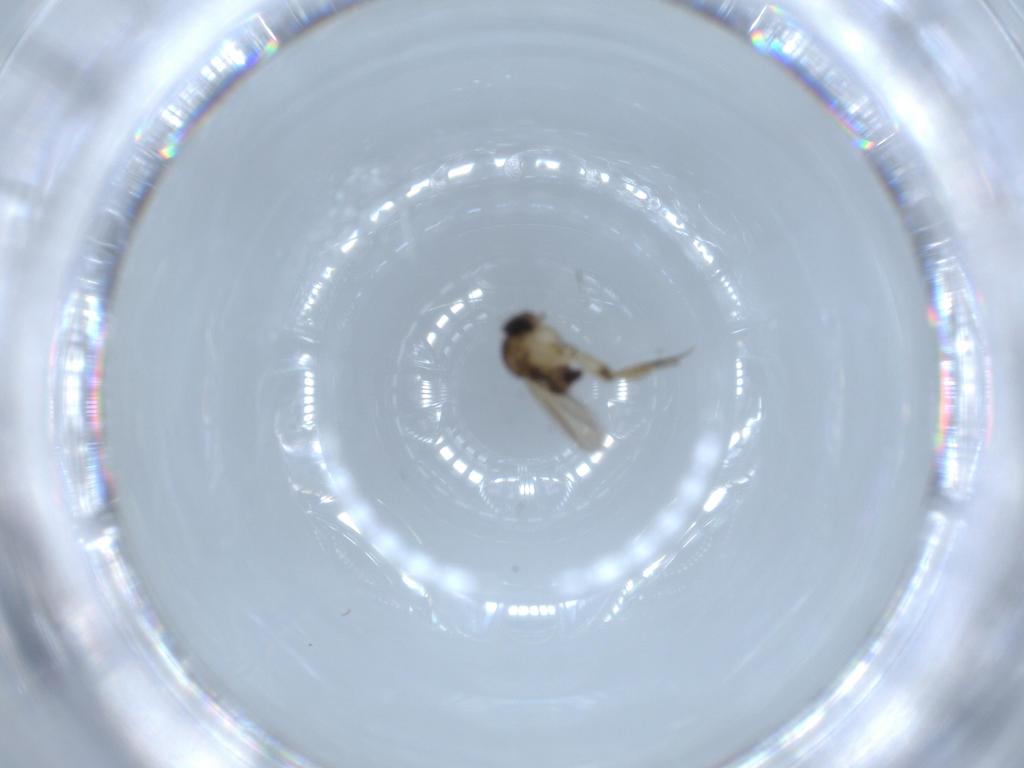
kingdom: Animalia
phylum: Arthropoda
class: Insecta
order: Diptera
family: Phoridae
